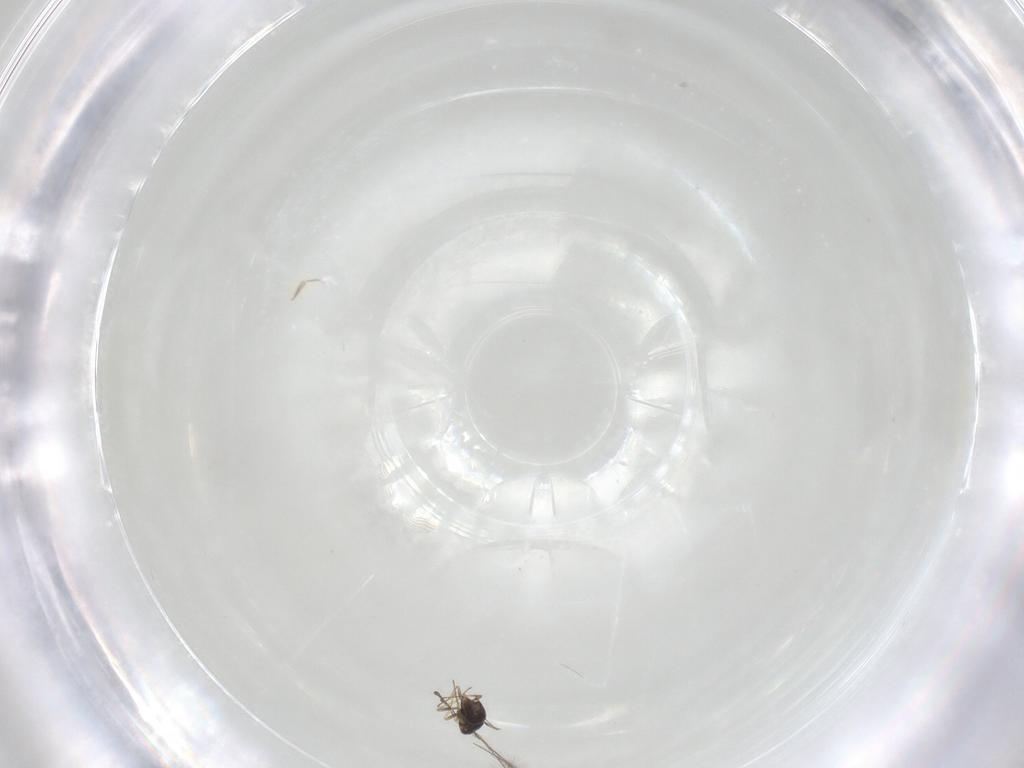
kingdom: Animalia
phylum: Arthropoda
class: Insecta
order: Hymenoptera
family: Mymaridae
